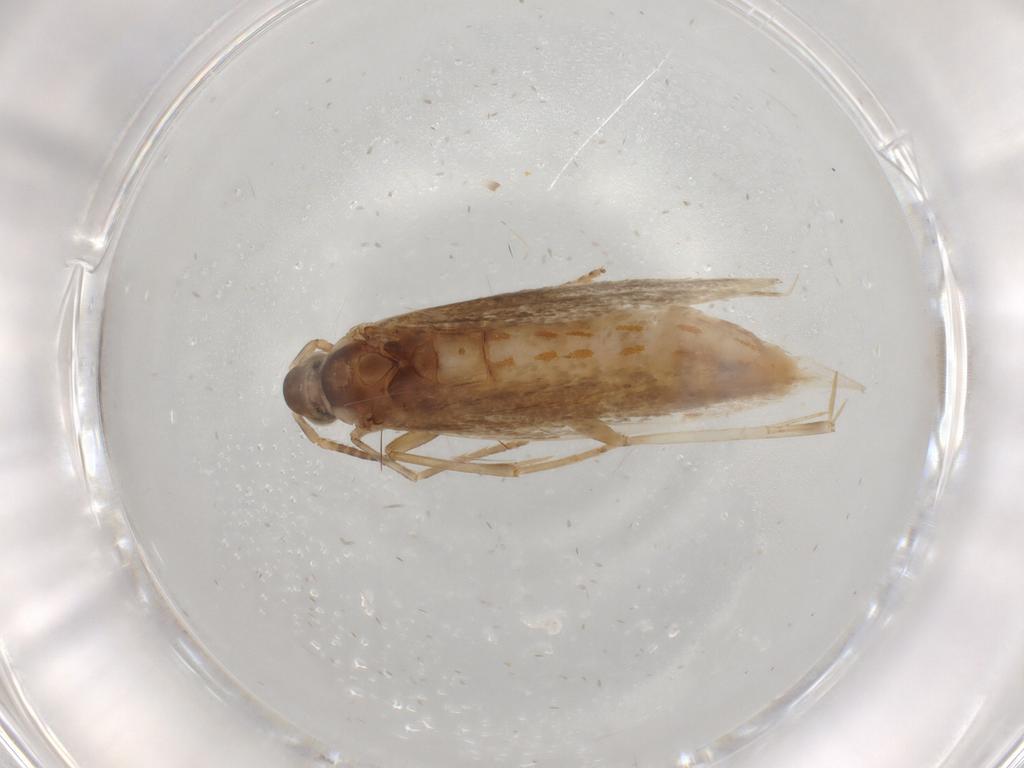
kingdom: Animalia
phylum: Arthropoda
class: Insecta
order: Lepidoptera
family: Coleophoridae
